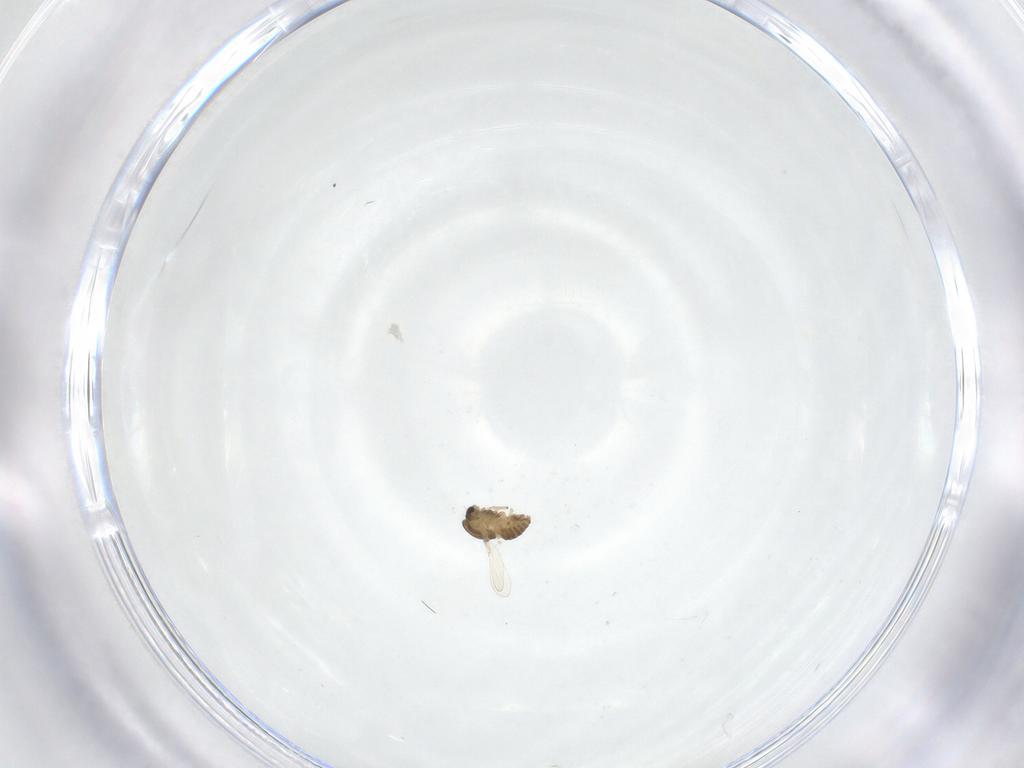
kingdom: Animalia
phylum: Arthropoda
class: Insecta
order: Diptera
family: Chironomidae
